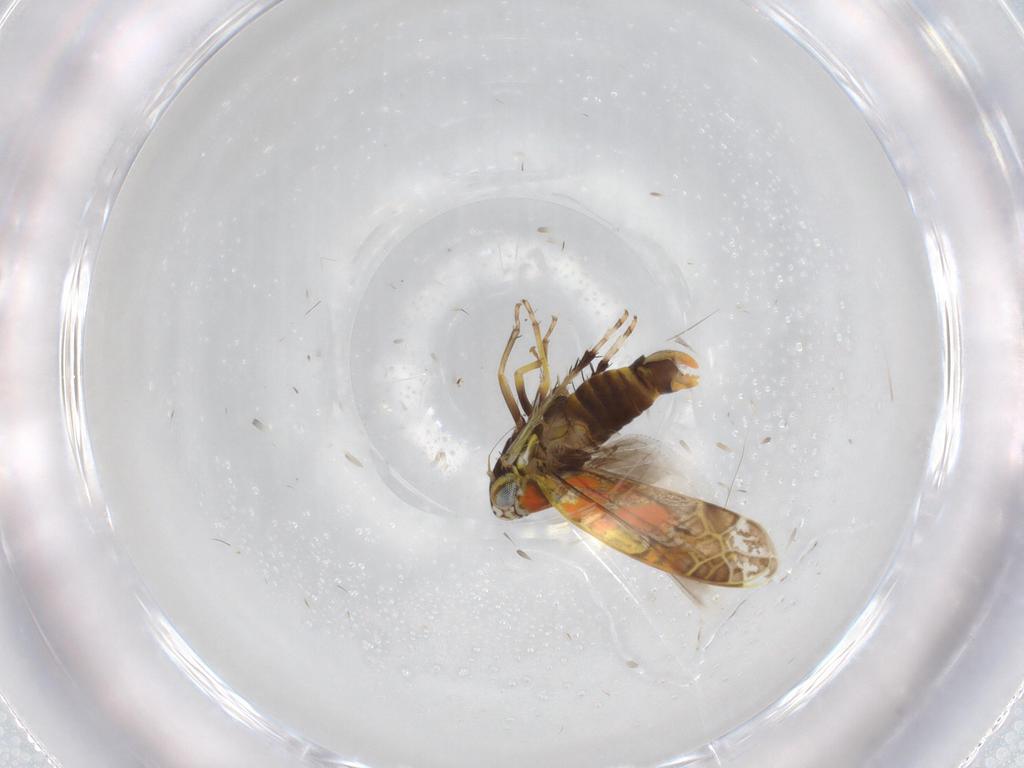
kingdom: Animalia
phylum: Arthropoda
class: Insecta
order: Hemiptera
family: Cicadellidae
